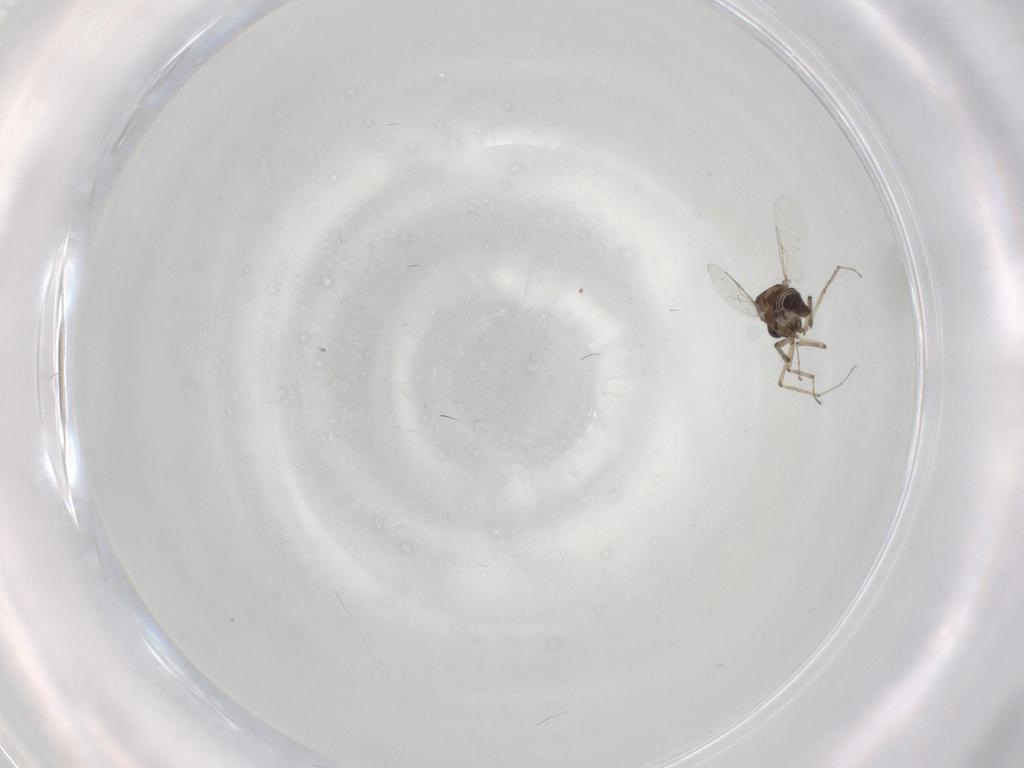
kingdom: Animalia
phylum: Arthropoda
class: Insecta
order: Diptera
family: Ceratopogonidae
